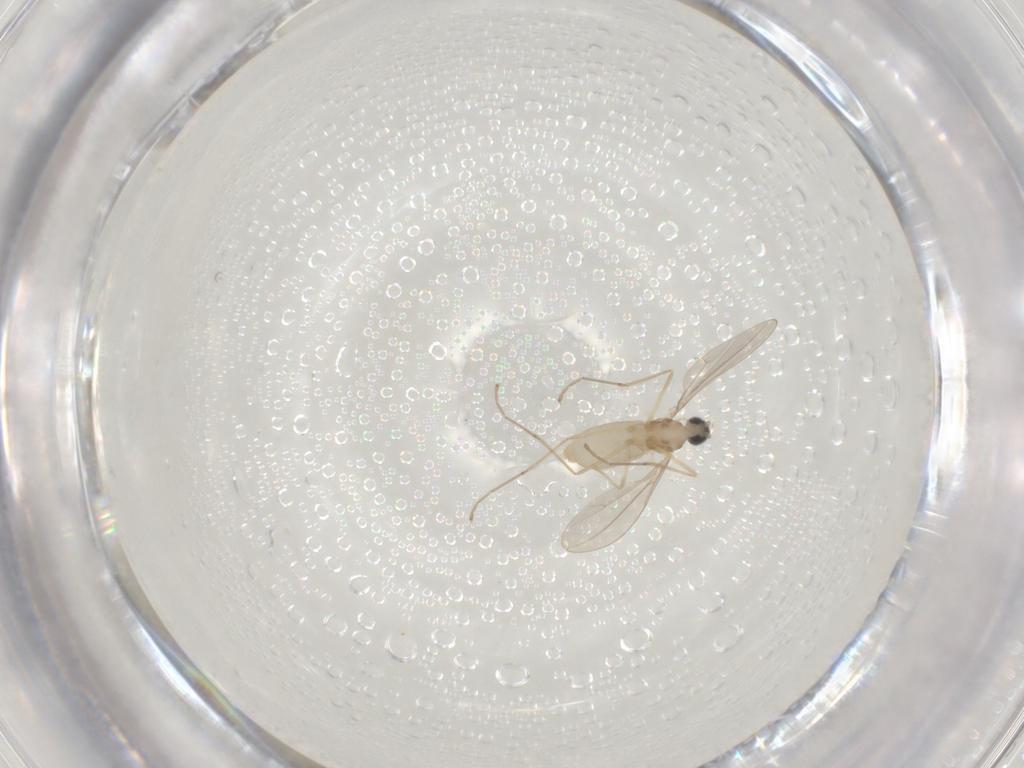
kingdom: Animalia
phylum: Arthropoda
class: Insecta
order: Diptera
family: Cecidomyiidae
